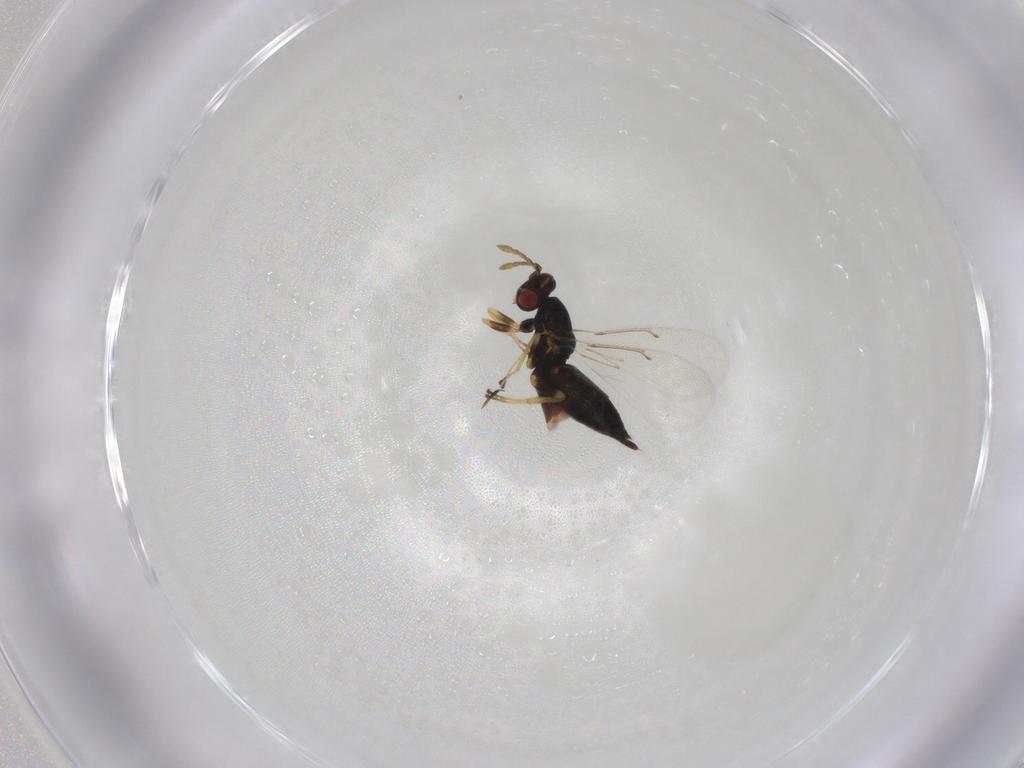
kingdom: Animalia
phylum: Arthropoda
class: Insecta
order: Hymenoptera
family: Eulophidae
